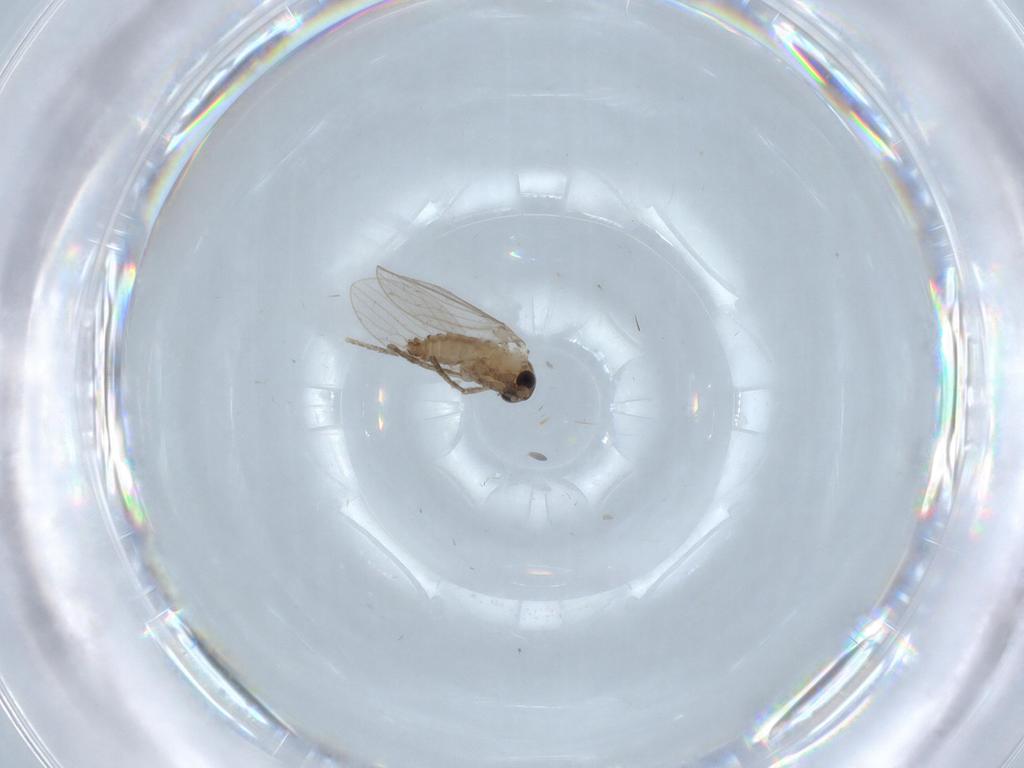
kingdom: Animalia
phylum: Arthropoda
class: Insecta
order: Diptera
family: Psychodidae
